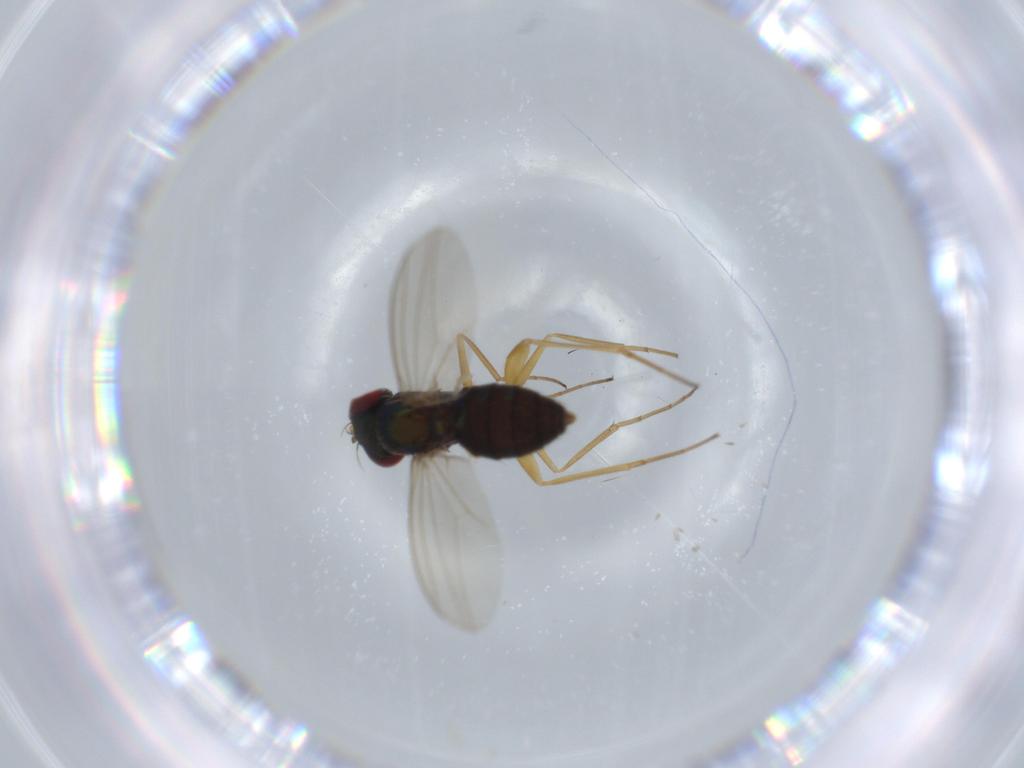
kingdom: Animalia
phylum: Arthropoda
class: Insecta
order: Diptera
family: Dolichopodidae
